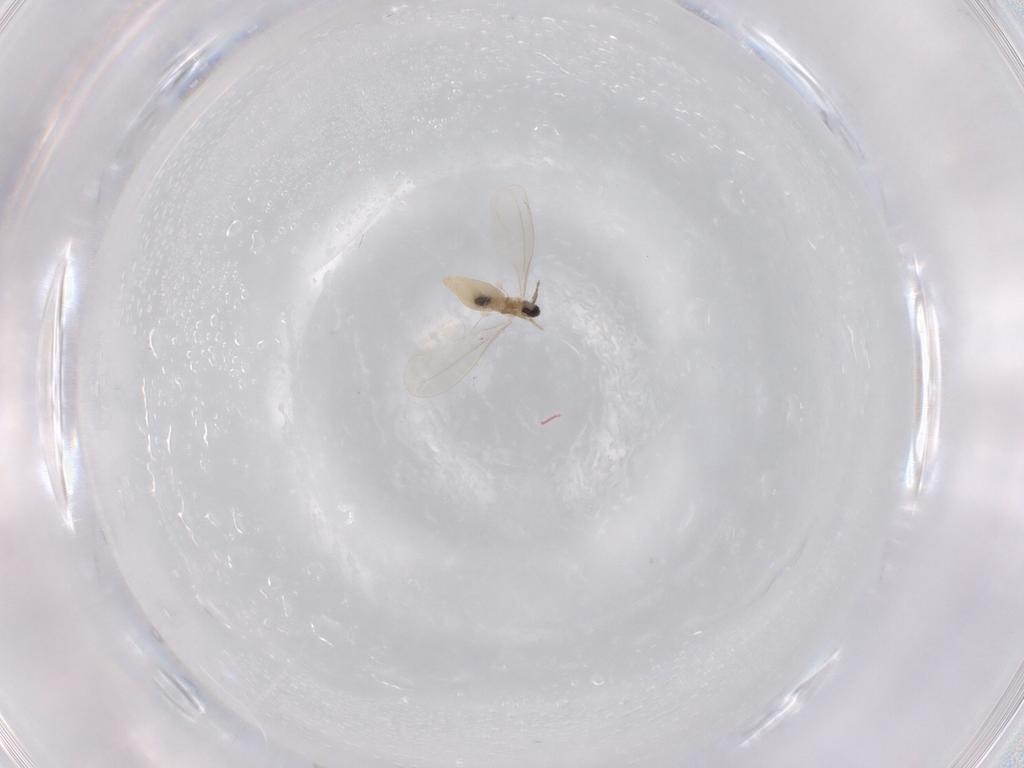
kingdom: Animalia
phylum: Arthropoda
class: Insecta
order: Diptera
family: Cecidomyiidae
